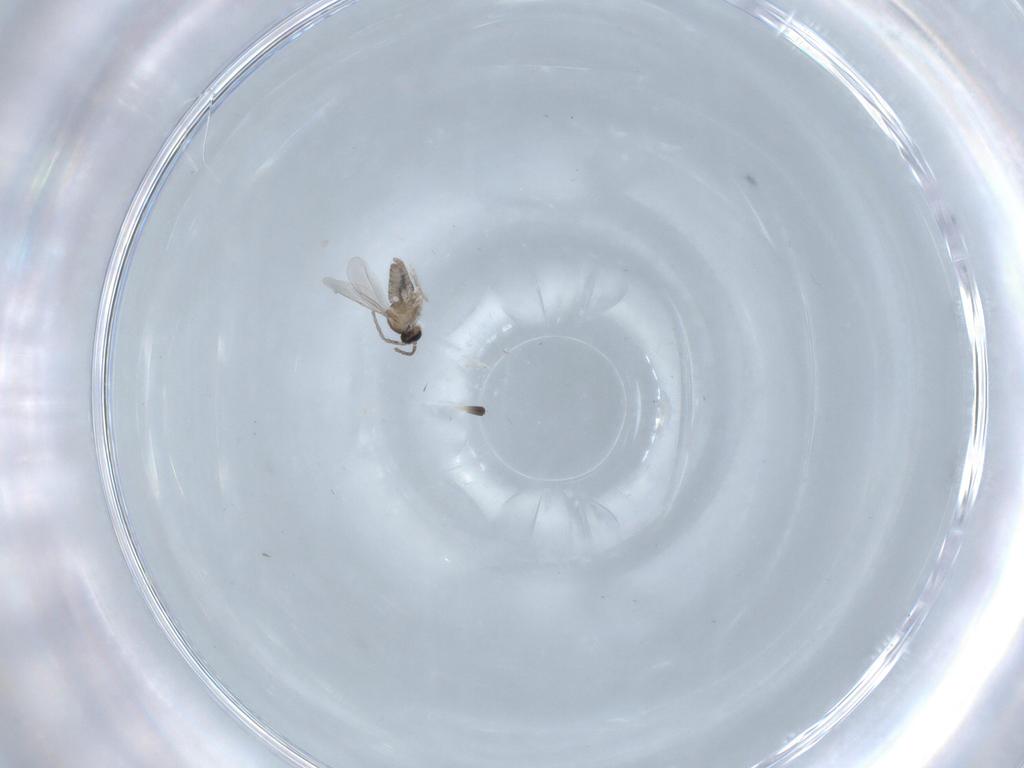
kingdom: Animalia
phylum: Arthropoda
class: Insecta
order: Diptera
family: Cecidomyiidae
